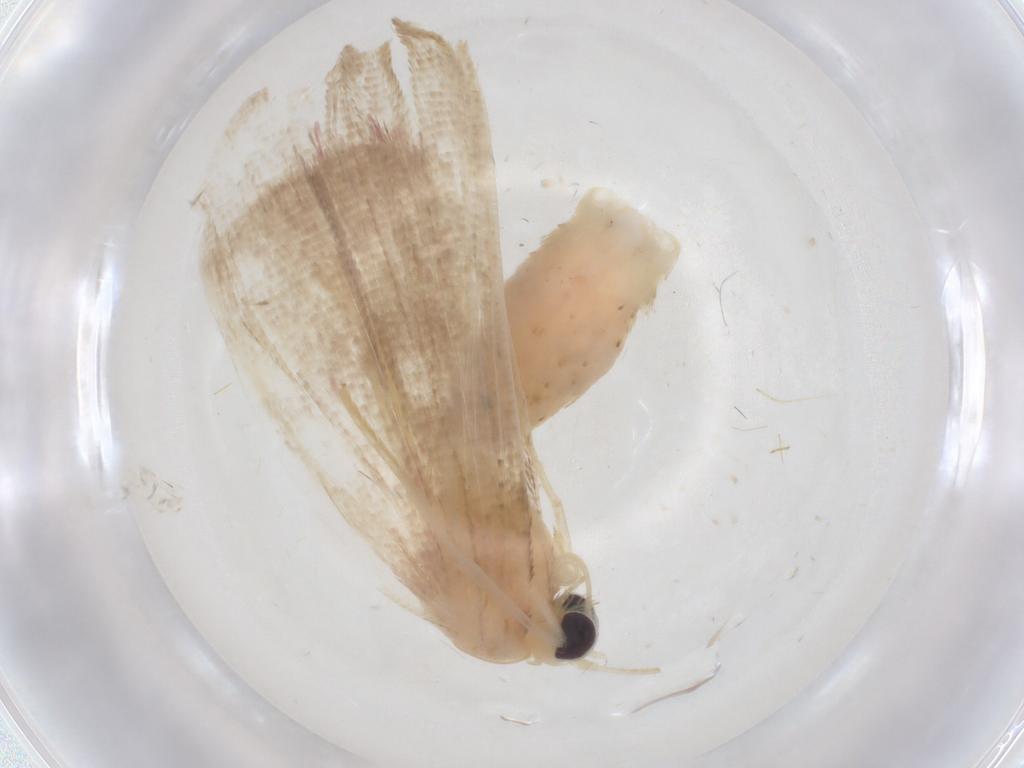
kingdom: Animalia
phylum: Arthropoda
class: Insecta
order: Lepidoptera
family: Erebidae
